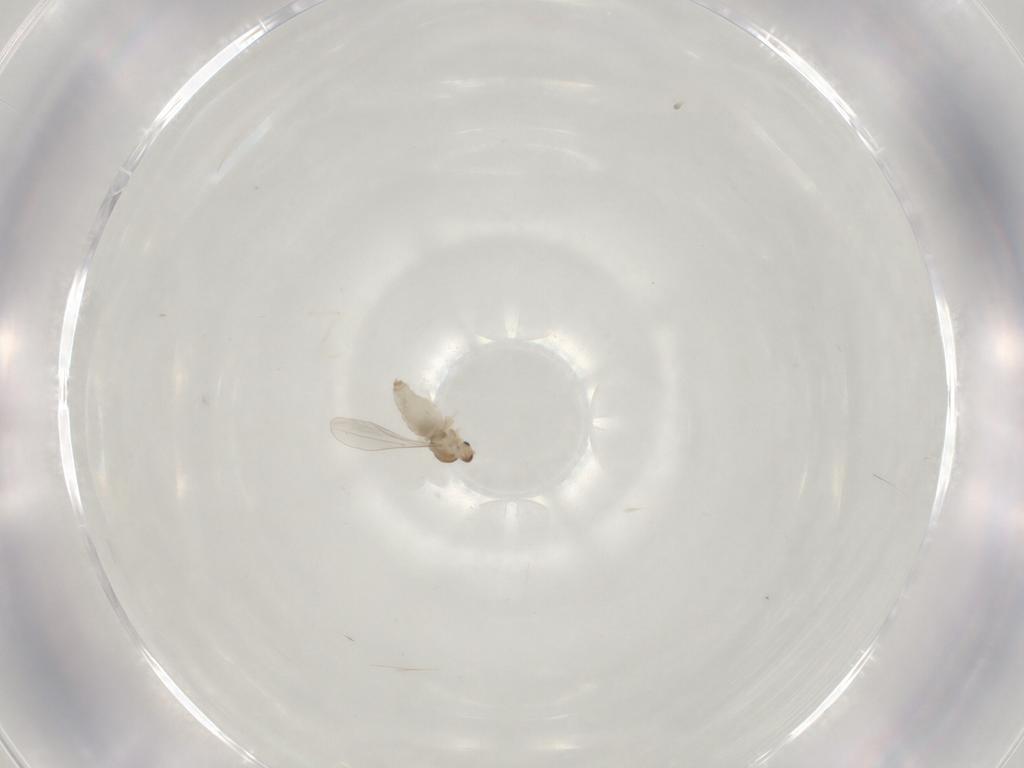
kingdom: Animalia
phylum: Arthropoda
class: Insecta
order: Diptera
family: Cecidomyiidae
